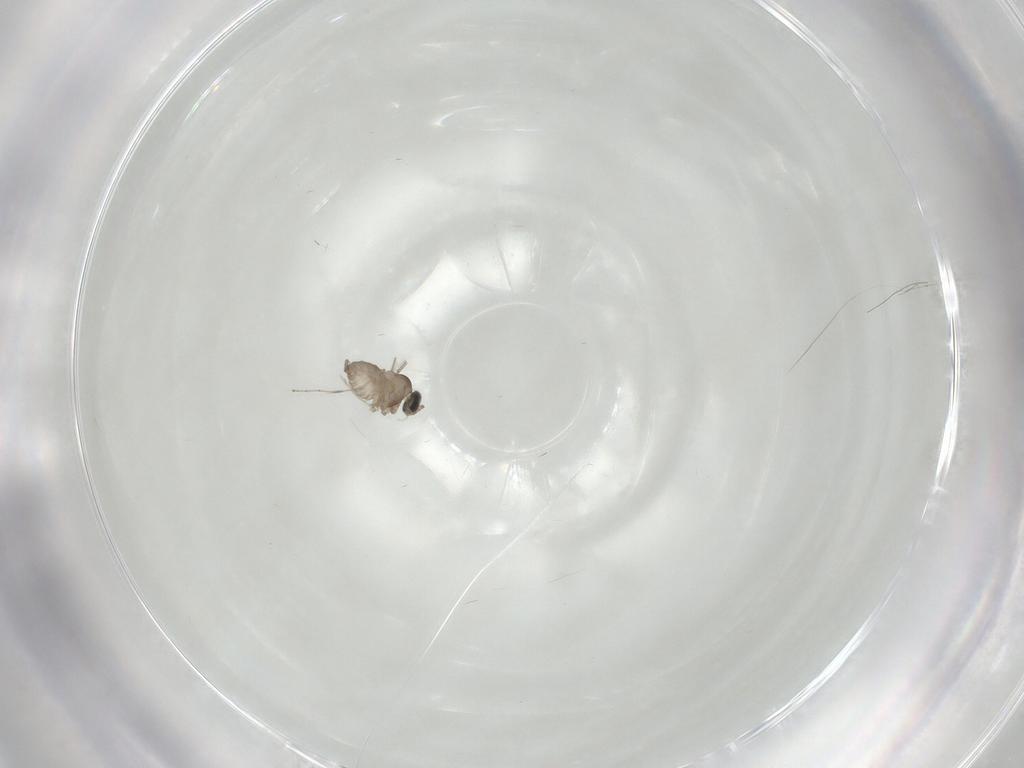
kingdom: Animalia
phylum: Arthropoda
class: Insecta
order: Diptera
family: Cecidomyiidae
